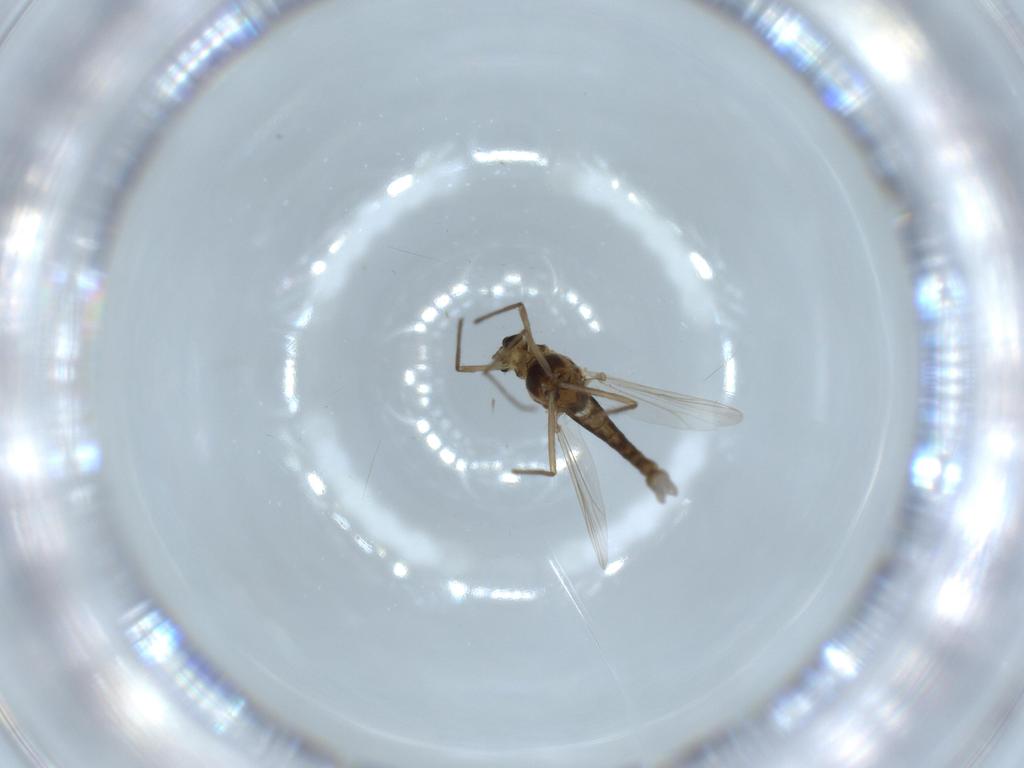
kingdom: Animalia
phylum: Arthropoda
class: Insecta
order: Diptera
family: Chironomidae
